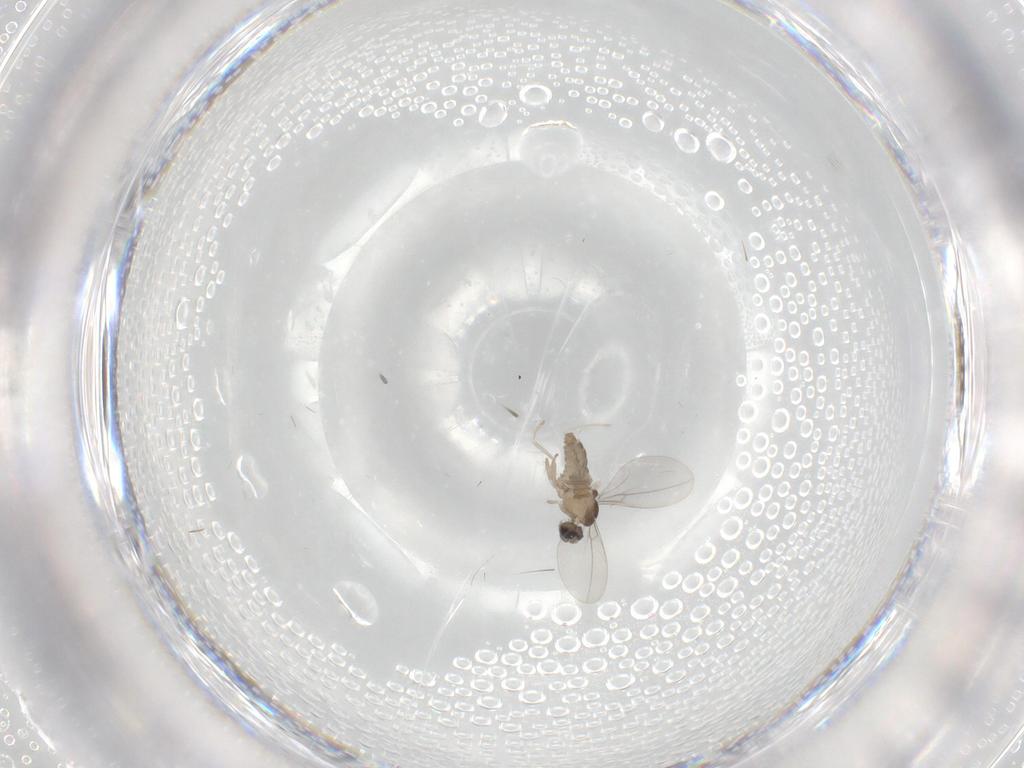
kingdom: Animalia
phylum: Arthropoda
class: Insecta
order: Diptera
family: Cecidomyiidae
